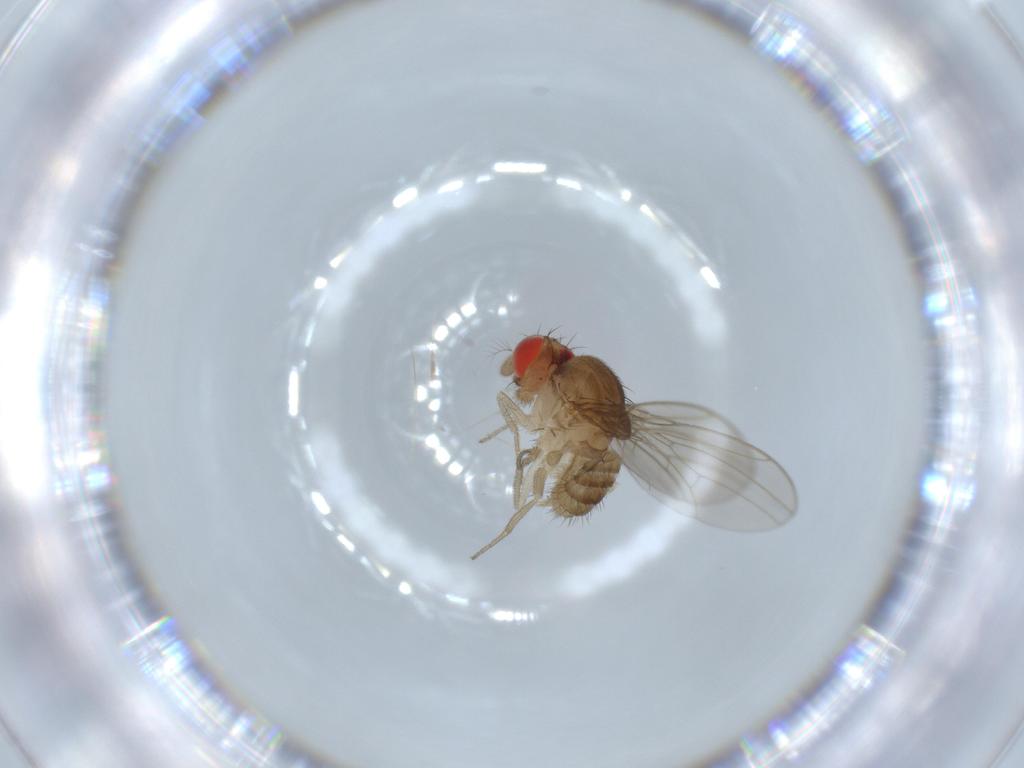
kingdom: Animalia
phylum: Arthropoda
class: Insecta
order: Diptera
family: Drosophilidae
